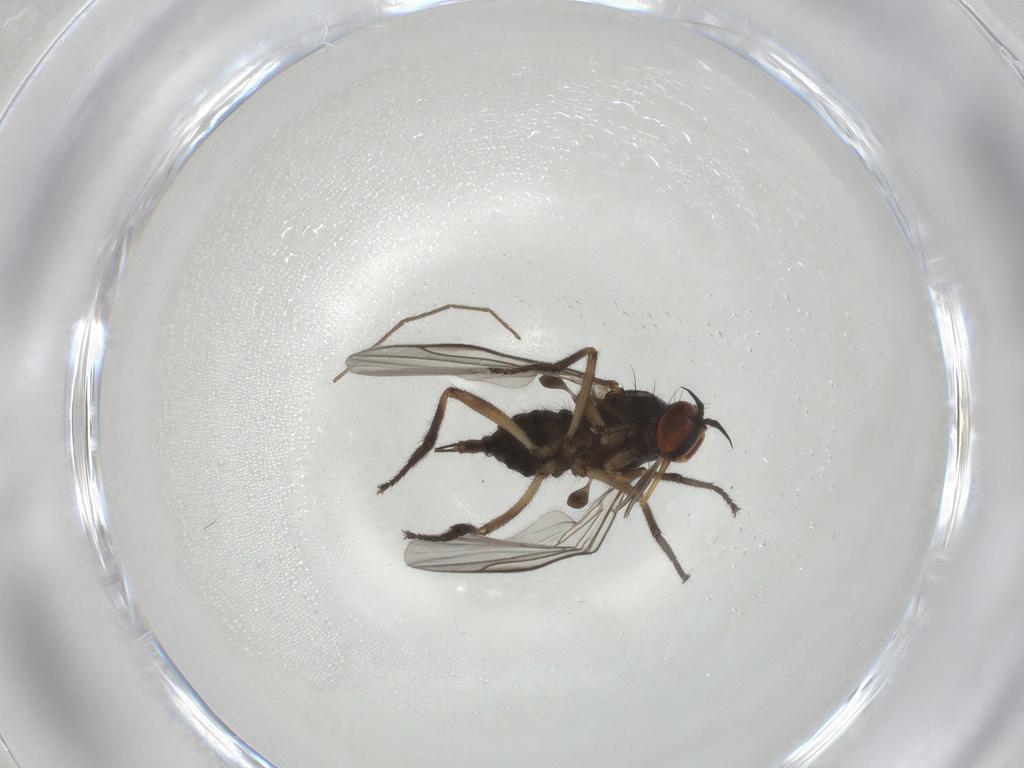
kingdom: Animalia
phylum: Arthropoda
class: Insecta
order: Diptera
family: Empididae
